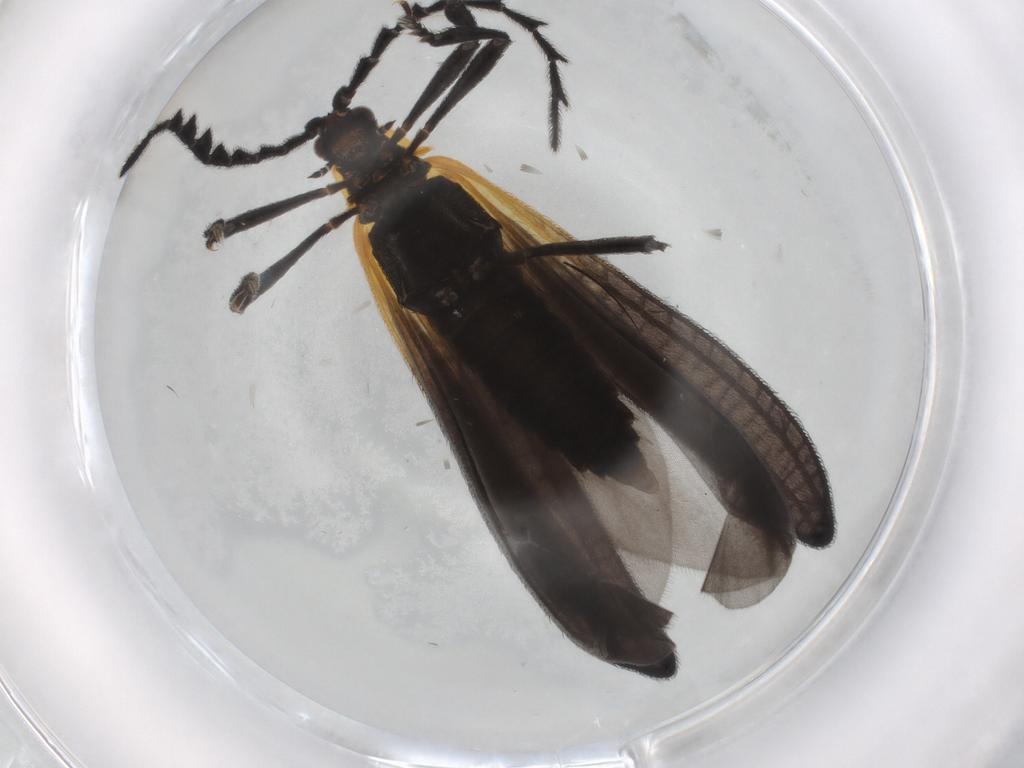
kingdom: Animalia
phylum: Arthropoda
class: Insecta
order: Coleoptera
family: Lycidae
